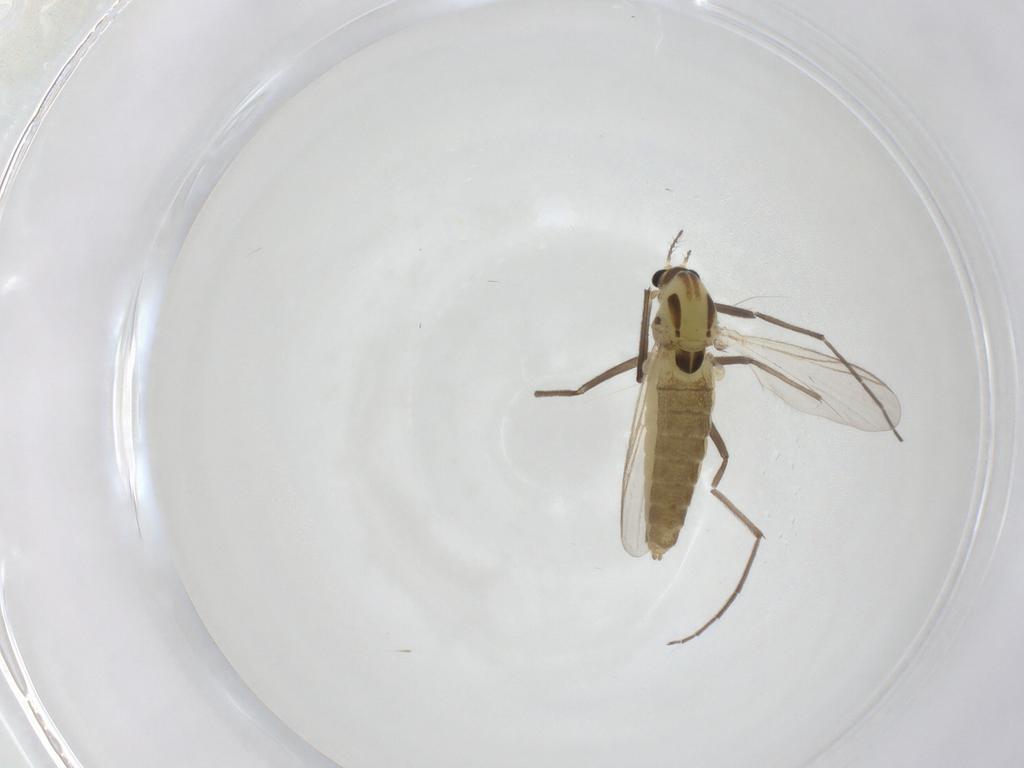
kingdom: Animalia
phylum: Arthropoda
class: Insecta
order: Diptera
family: Chironomidae
